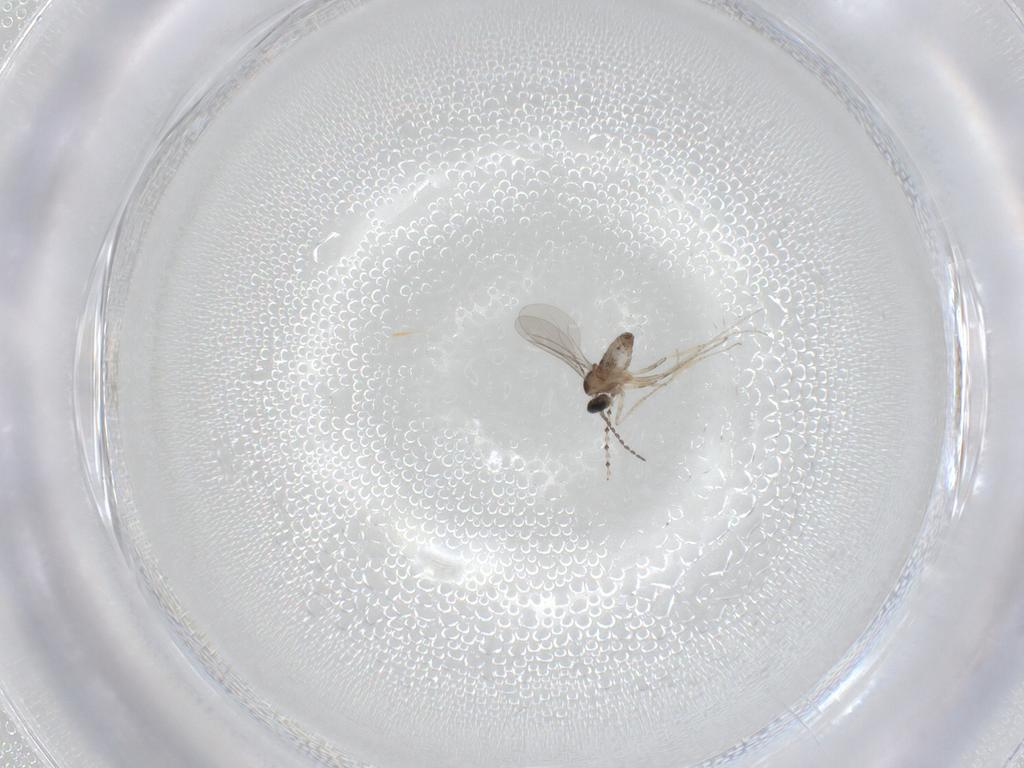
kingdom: Animalia
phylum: Arthropoda
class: Insecta
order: Diptera
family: Cecidomyiidae
